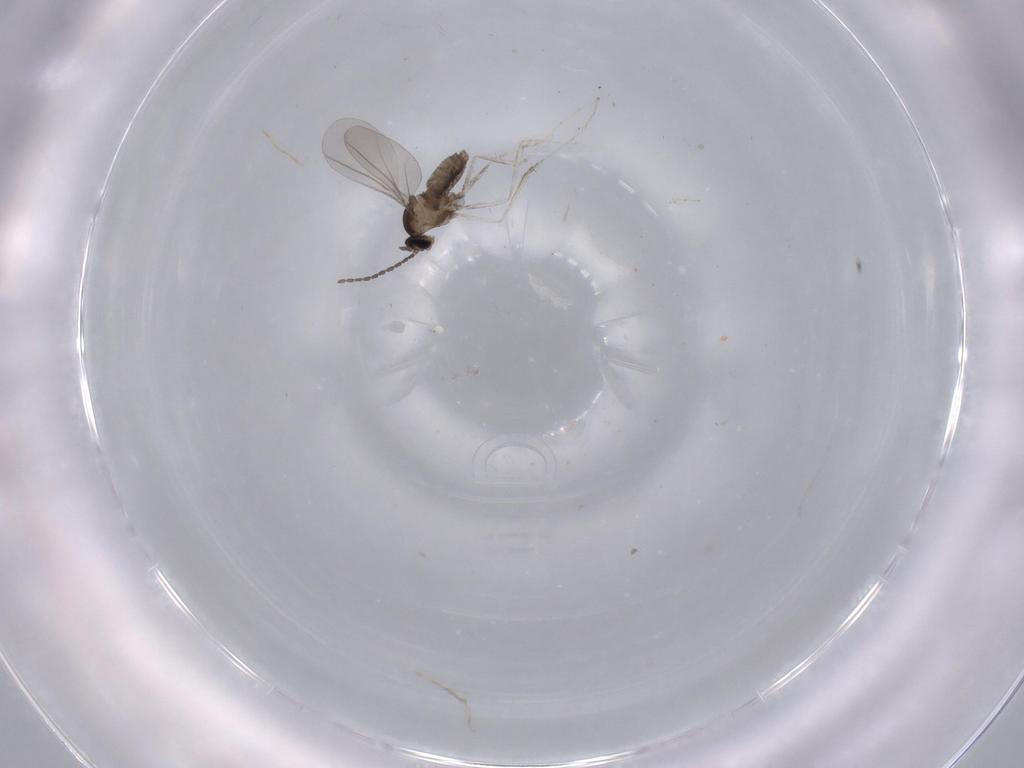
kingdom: Animalia
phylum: Arthropoda
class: Insecta
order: Diptera
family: Cecidomyiidae
